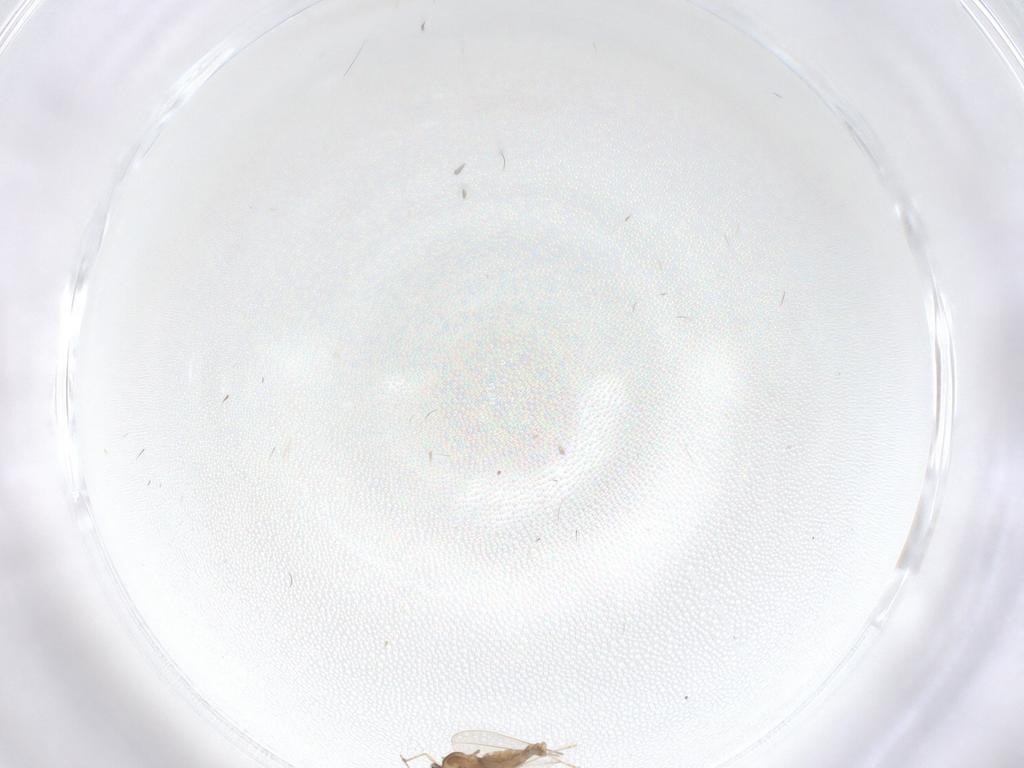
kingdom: Animalia
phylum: Arthropoda
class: Insecta
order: Diptera
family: Cecidomyiidae
